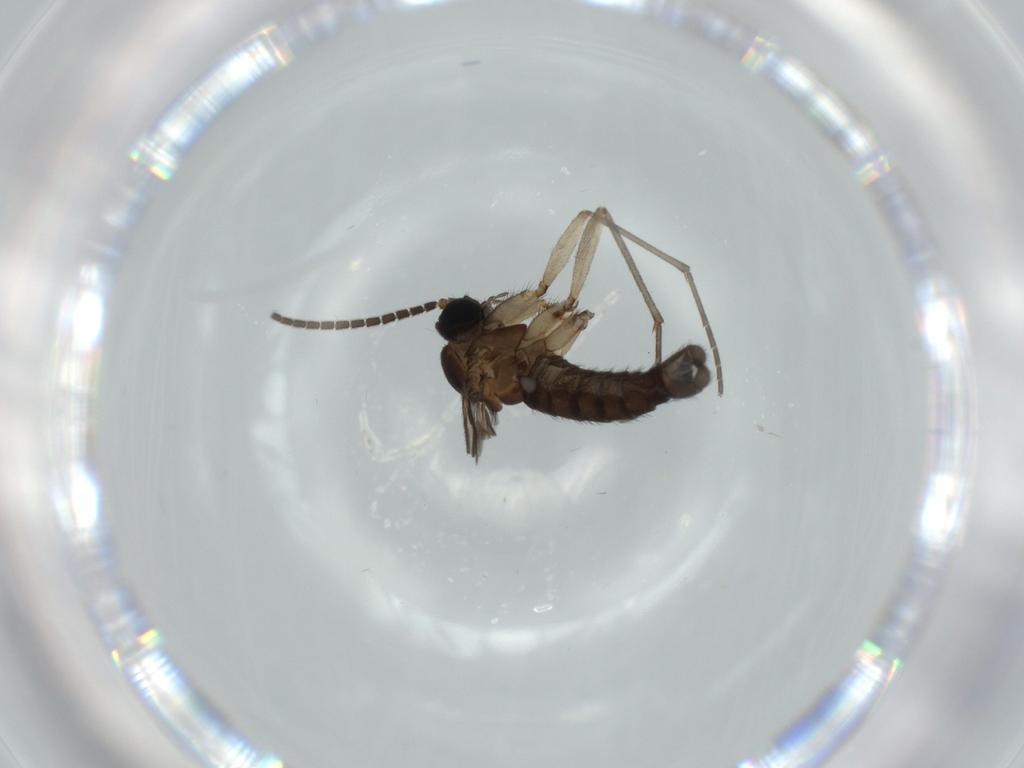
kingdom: Animalia
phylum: Arthropoda
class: Insecta
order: Diptera
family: Sciaridae
